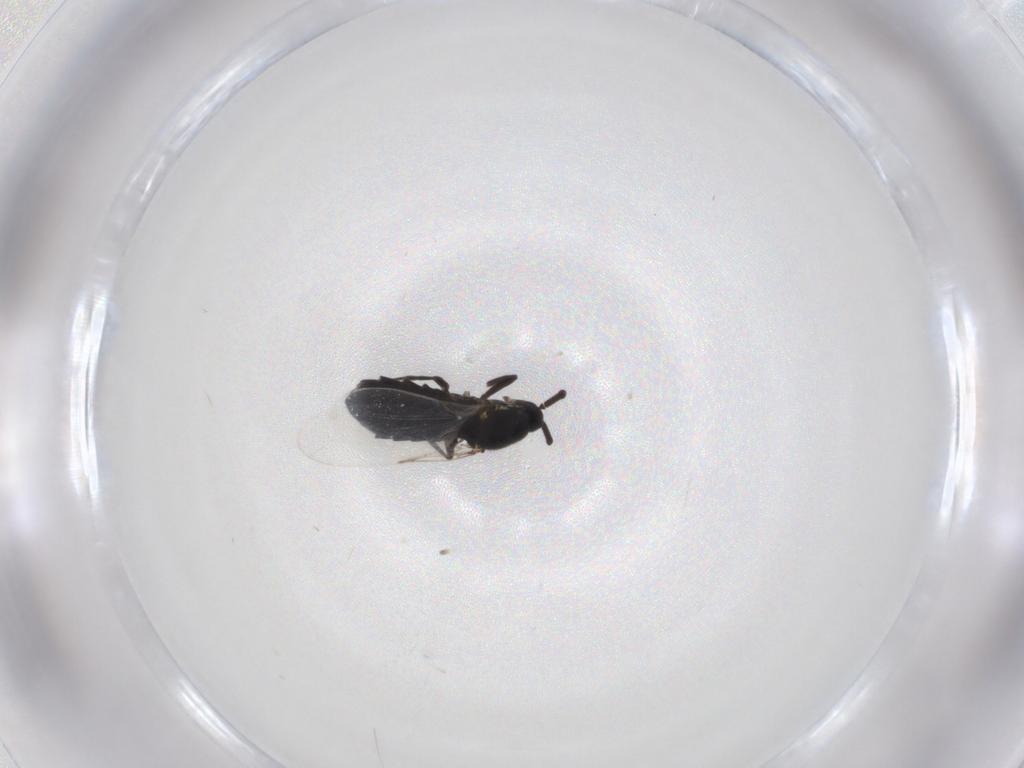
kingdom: Animalia
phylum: Arthropoda
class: Insecta
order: Diptera
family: Scatopsidae
